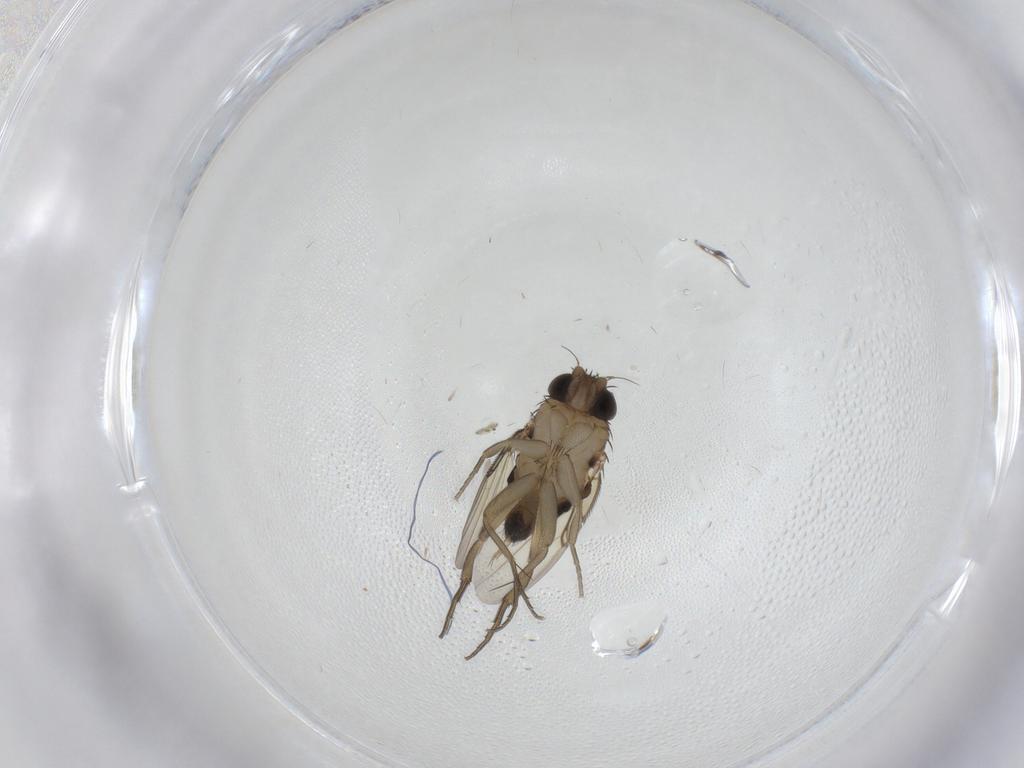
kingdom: Animalia
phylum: Arthropoda
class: Insecta
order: Diptera
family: Phoridae
